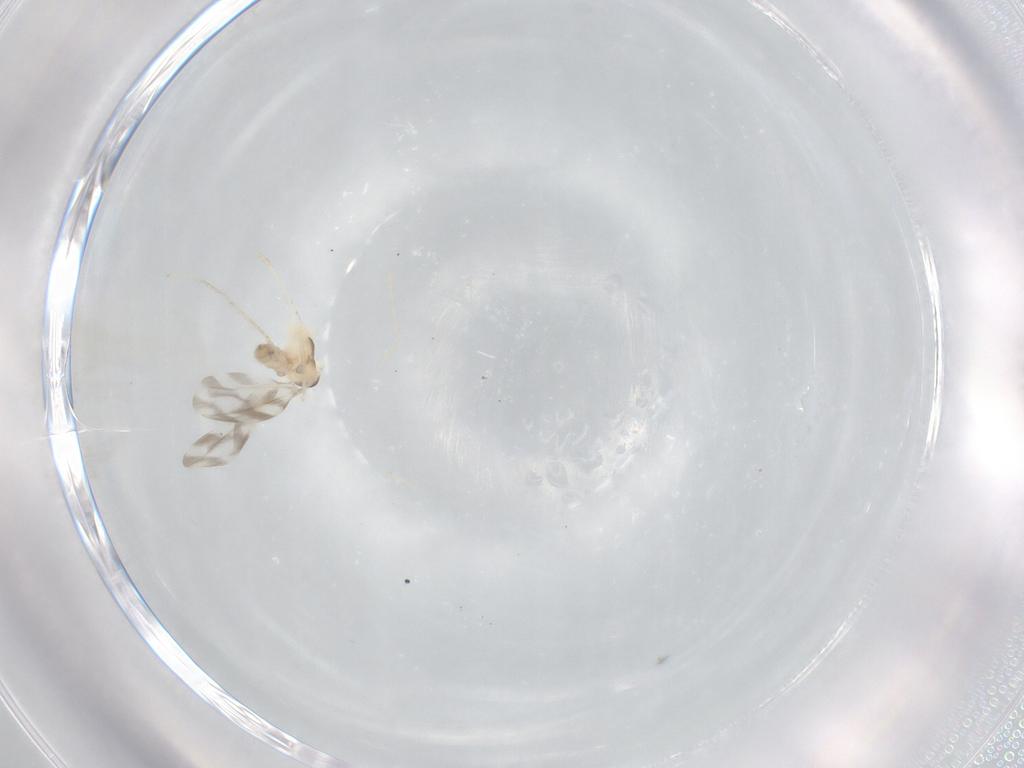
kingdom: Animalia
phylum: Arthropoda
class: Insecta
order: Diptera
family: Cecidomyiidae
